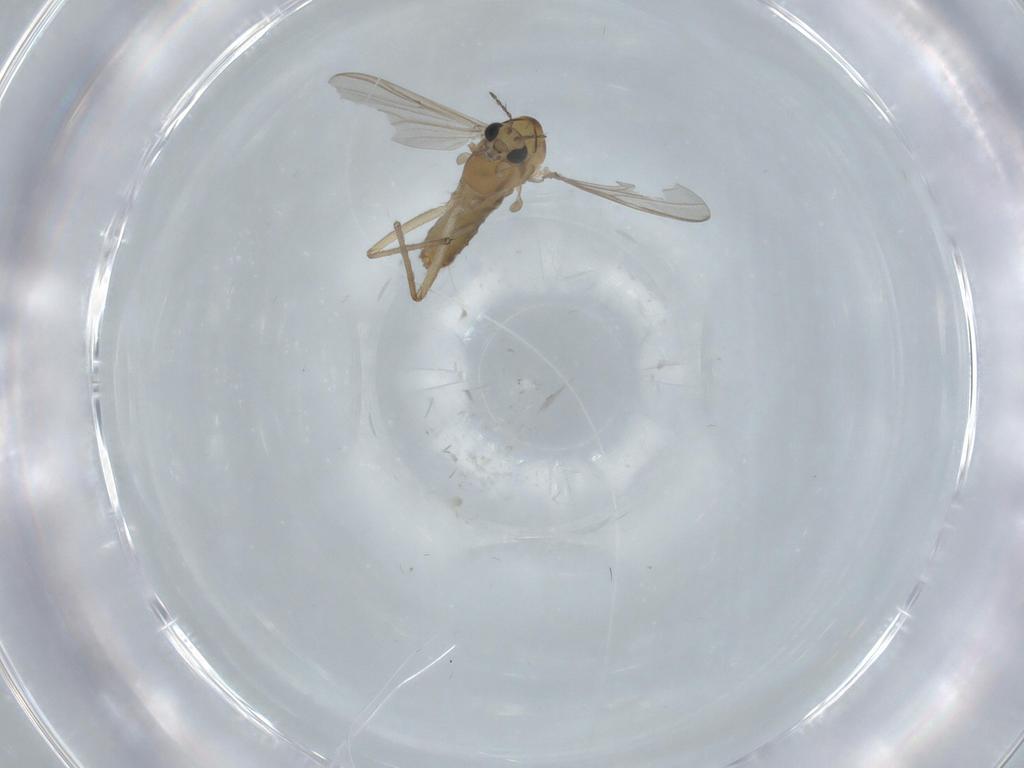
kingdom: Animalia
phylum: Arthropoda
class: Insecta
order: Diptera
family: Chironomidae
